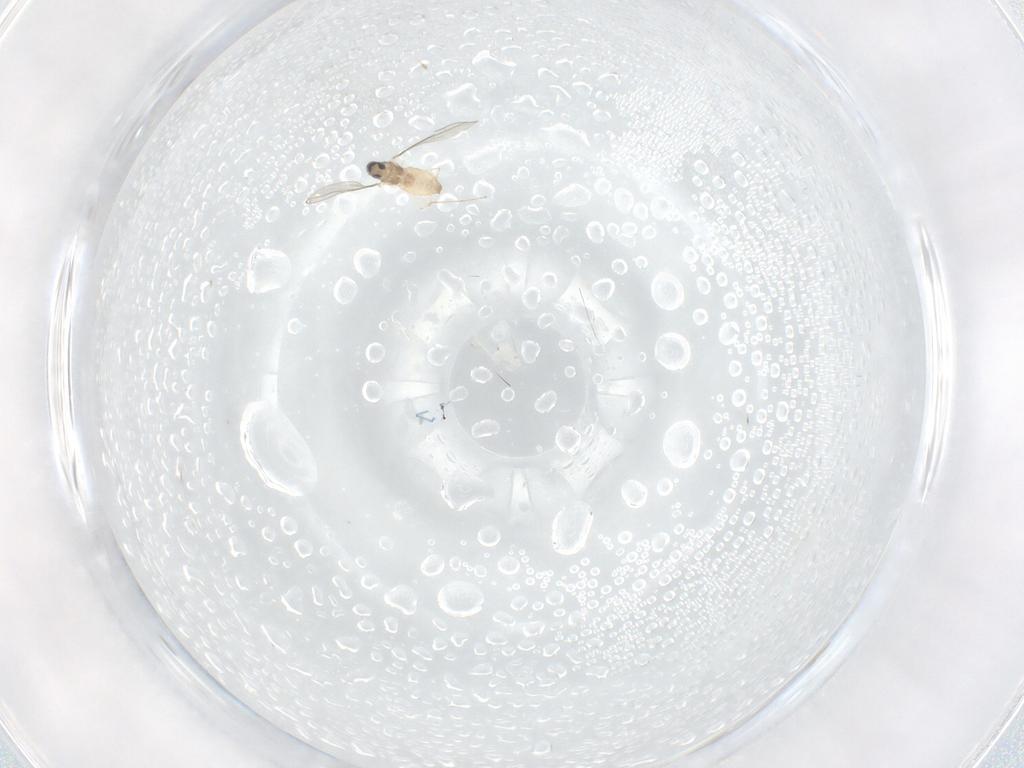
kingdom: Animalia
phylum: Arthropoda
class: Insecta
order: Diptera
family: Cecidomyiidae
